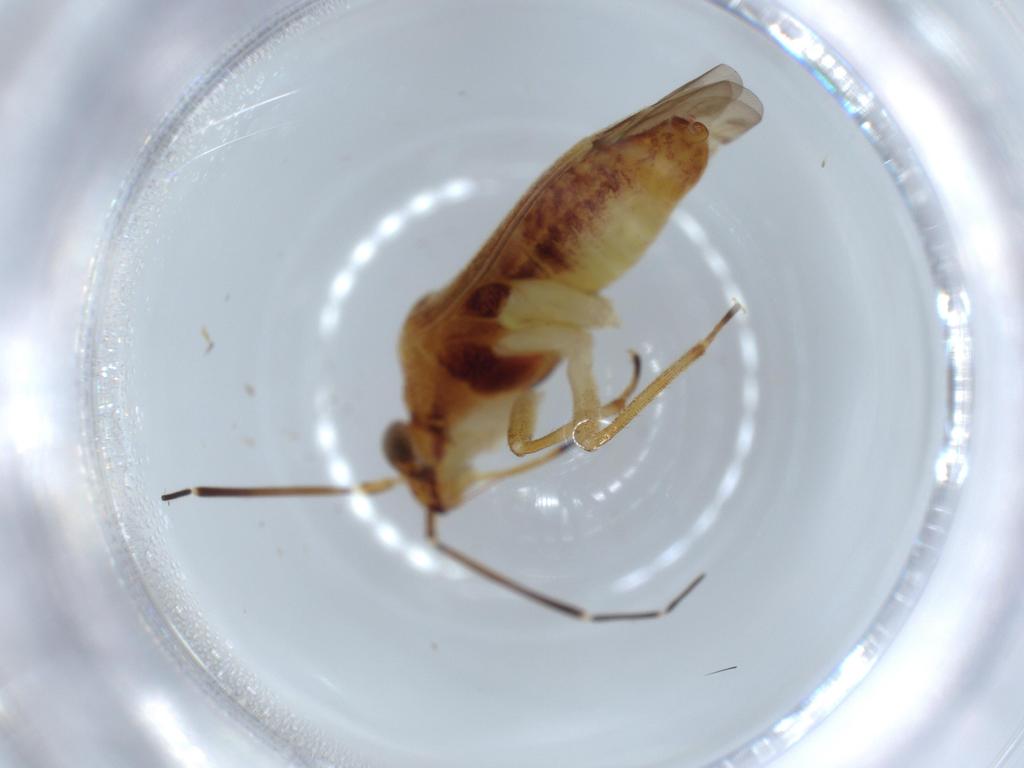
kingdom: Animalia
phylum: Arthropoda
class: Insecta
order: Hemiptera
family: Miridae
